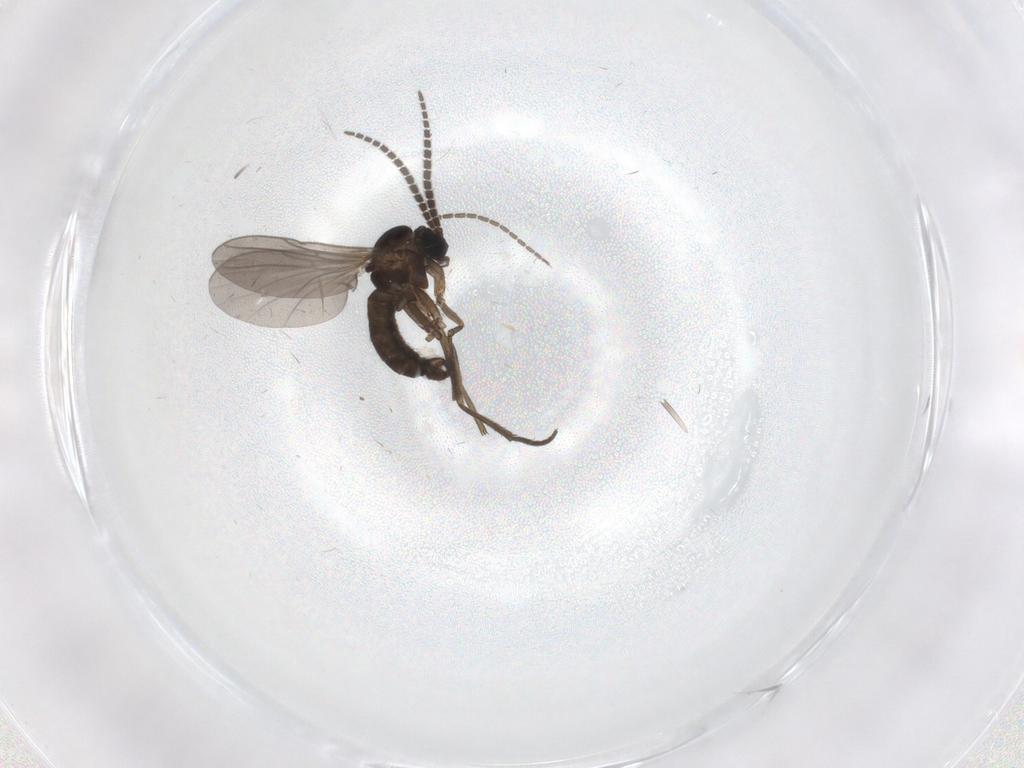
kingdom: Animalia
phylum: Arthropoda
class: Insecta
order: Diptera
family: Sciaridae
